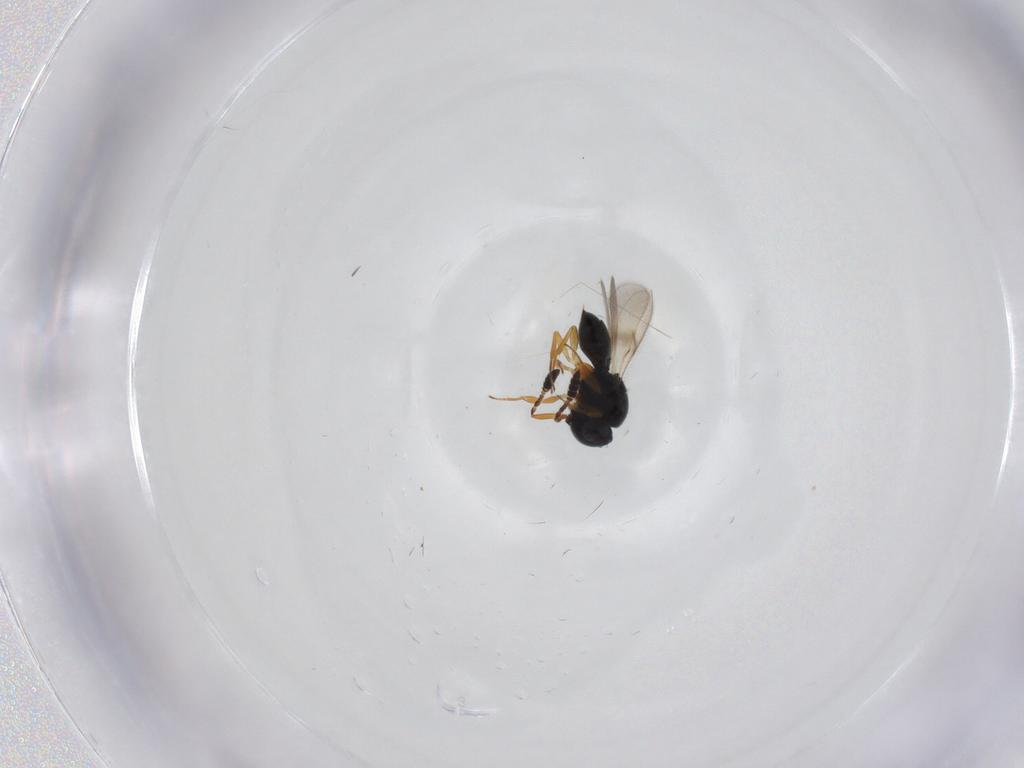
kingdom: Animalia
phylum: Arthropoda
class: Insecta
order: Hymenoptera
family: Scelionidae
